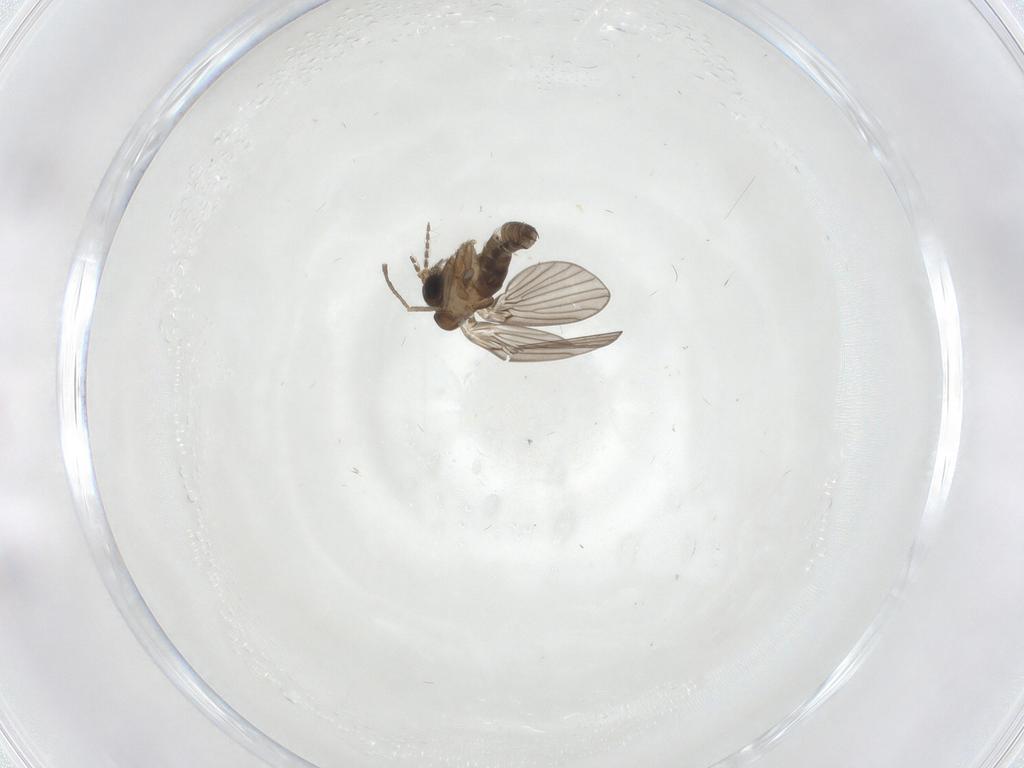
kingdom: Animalia
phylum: Arthropoda
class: Insecta
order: Diptera
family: Psychodidae
